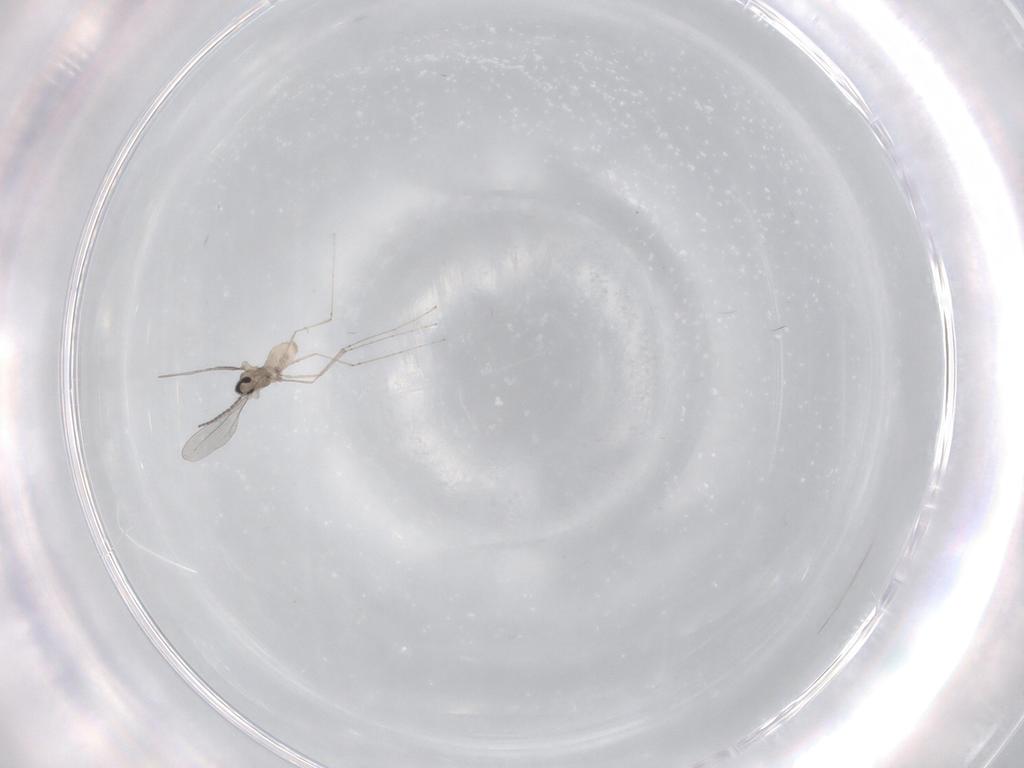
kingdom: Animalia
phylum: Arthropoda
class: Insecta
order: Diptera
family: Cecidomyiidae
